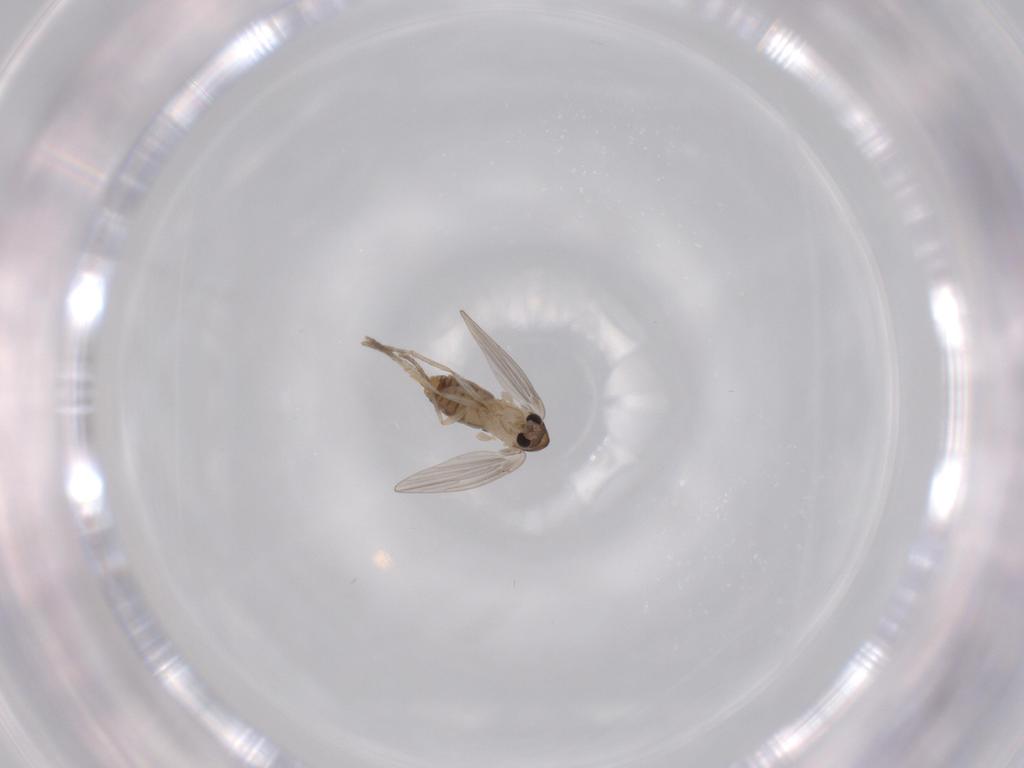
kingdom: Animalia
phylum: Arthropoda
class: Insecta
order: Diptera
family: Psychodidae
